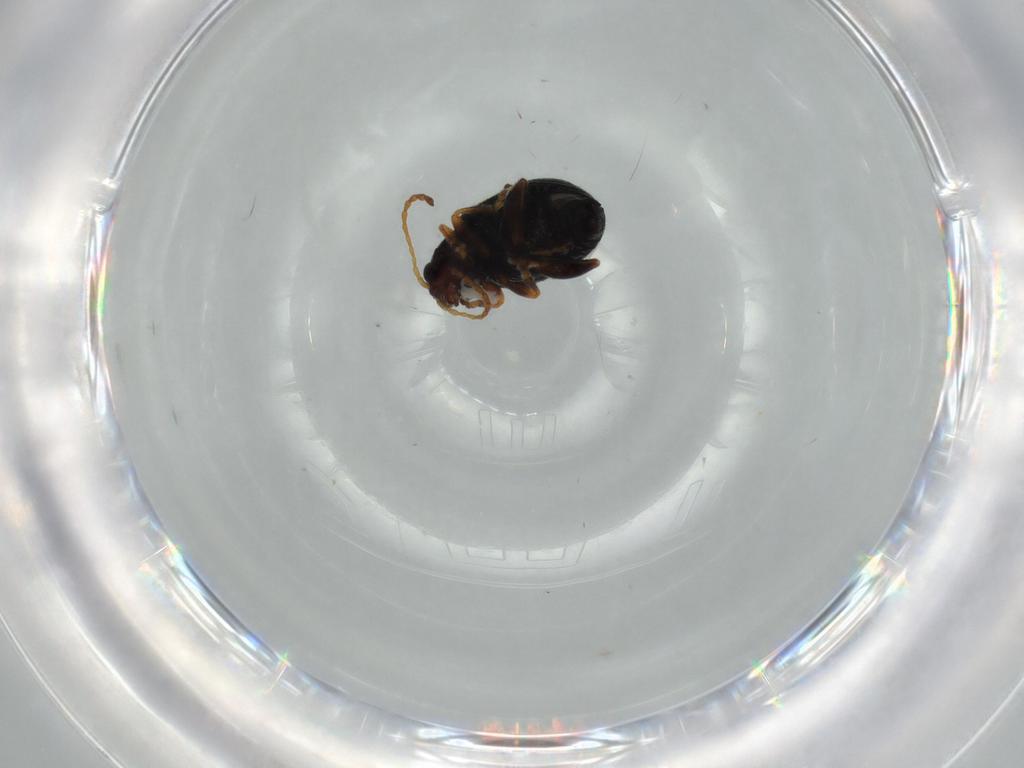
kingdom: Animalia
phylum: Arthropoda
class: Insecta
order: Coleoptera
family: Chrysomelidae
